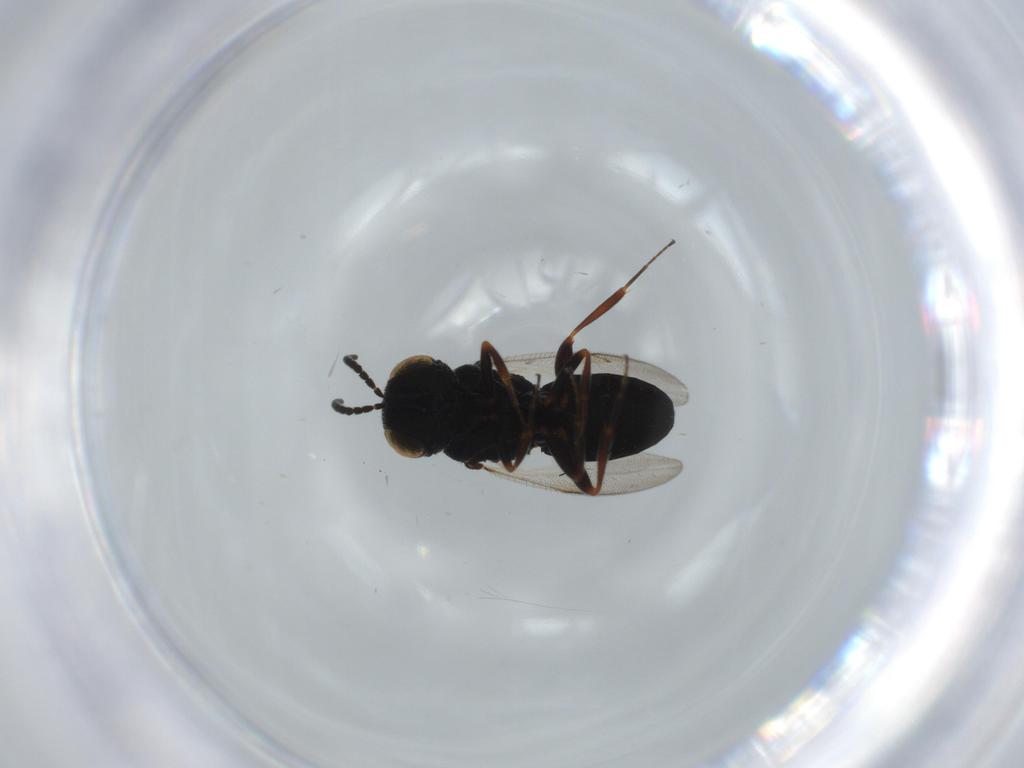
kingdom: Animalia
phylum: Arthropoda
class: Insecta
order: Hymenoptera
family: Scelionidae
